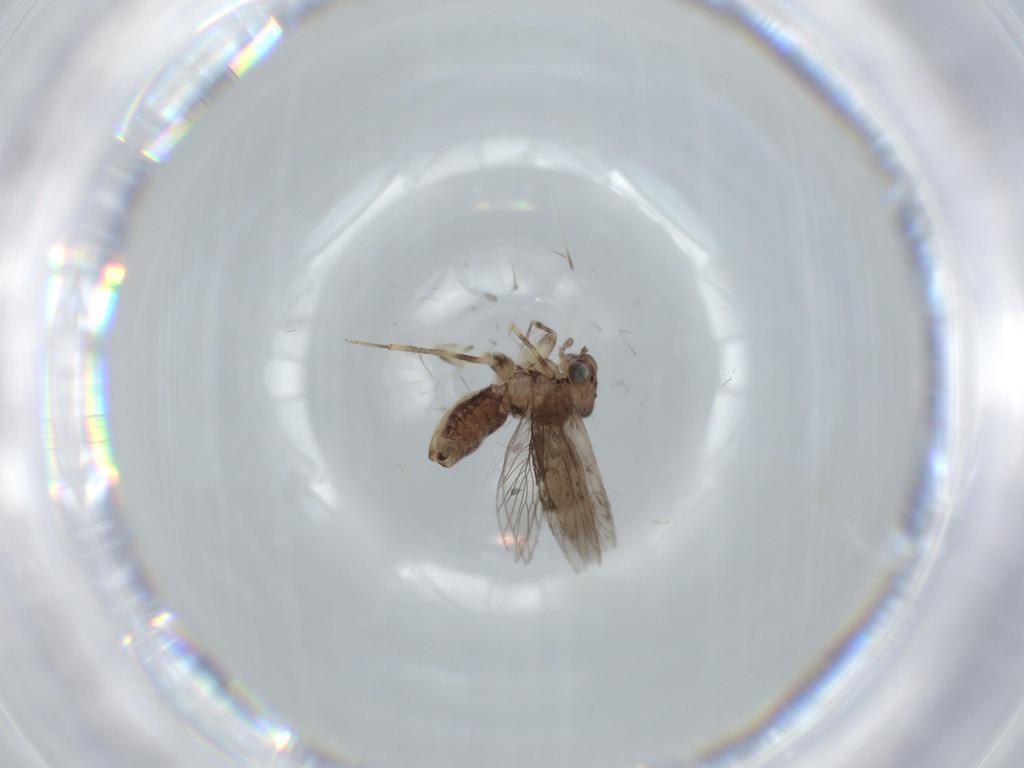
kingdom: Animalia
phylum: Arthropoda
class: Insecta
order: Psocodea
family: Lepidopsocidae
